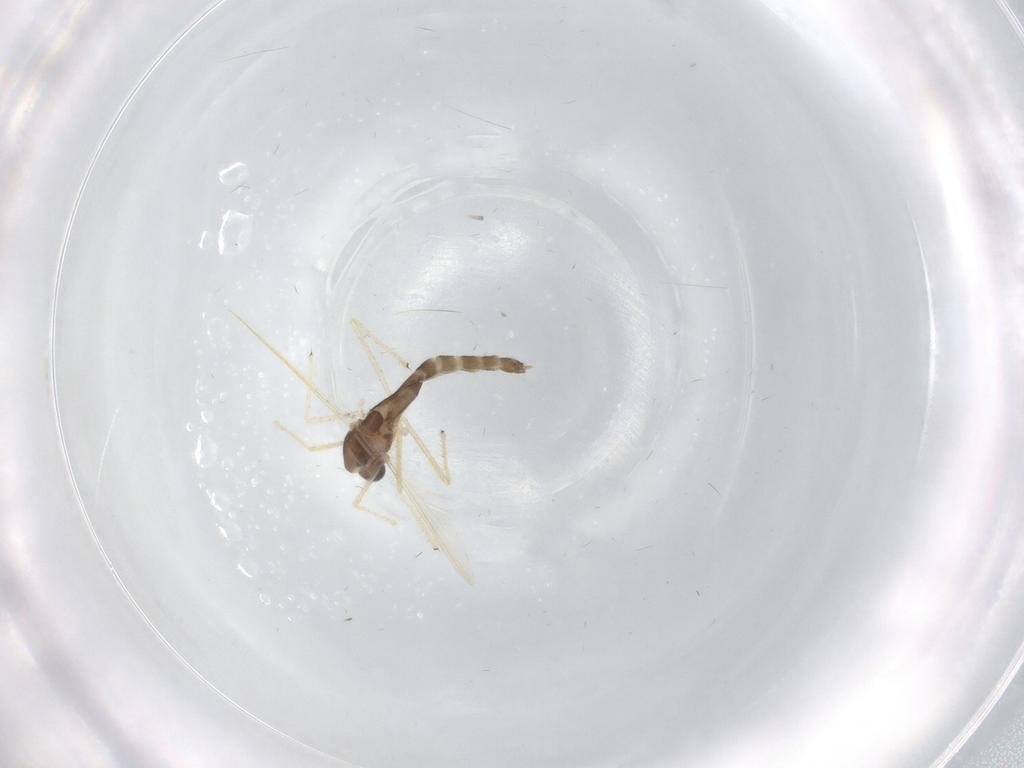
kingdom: Animalia
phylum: Arthropoda
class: Insecta
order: Diptera
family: Chironomidae
